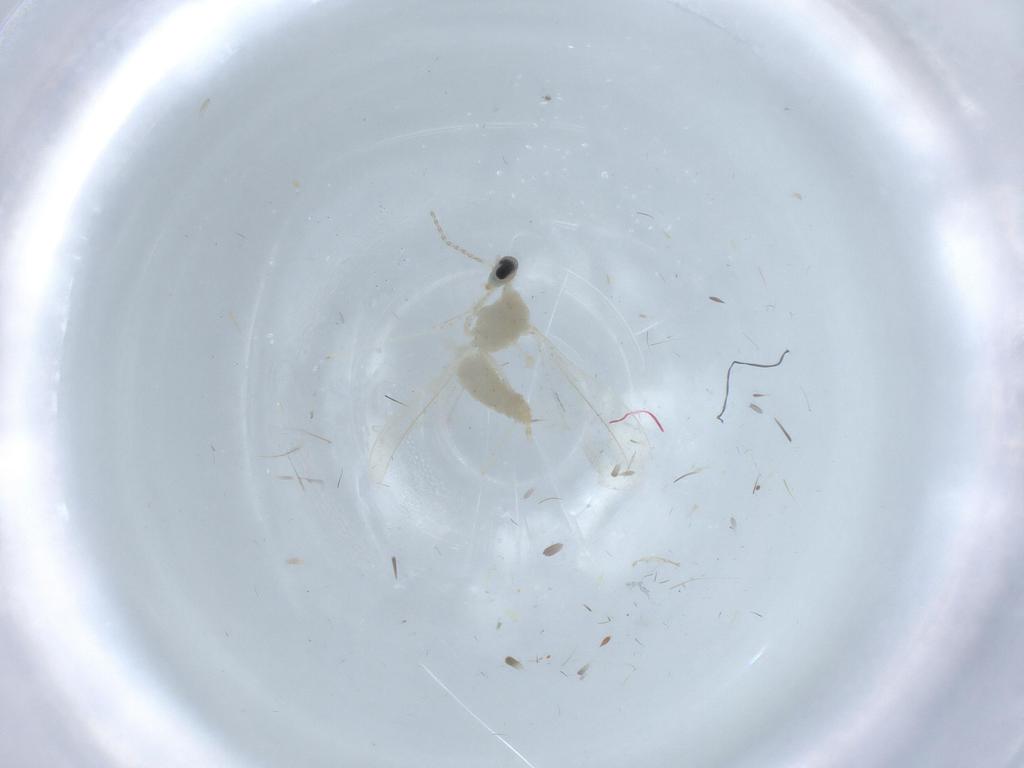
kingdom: Animalia
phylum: Arthropoda
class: Insecta
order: Diptera
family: Cecidomyiidae
